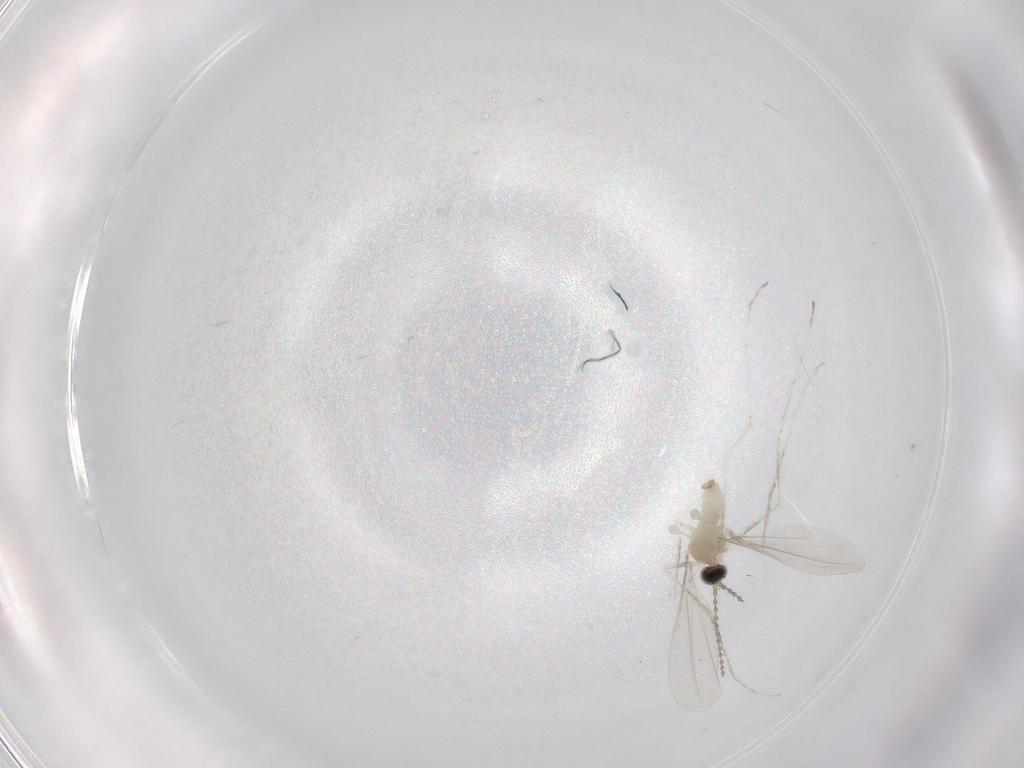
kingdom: Animalia
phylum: Arthropoda
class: Insecta
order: Diptera
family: Cecidomyiidae
